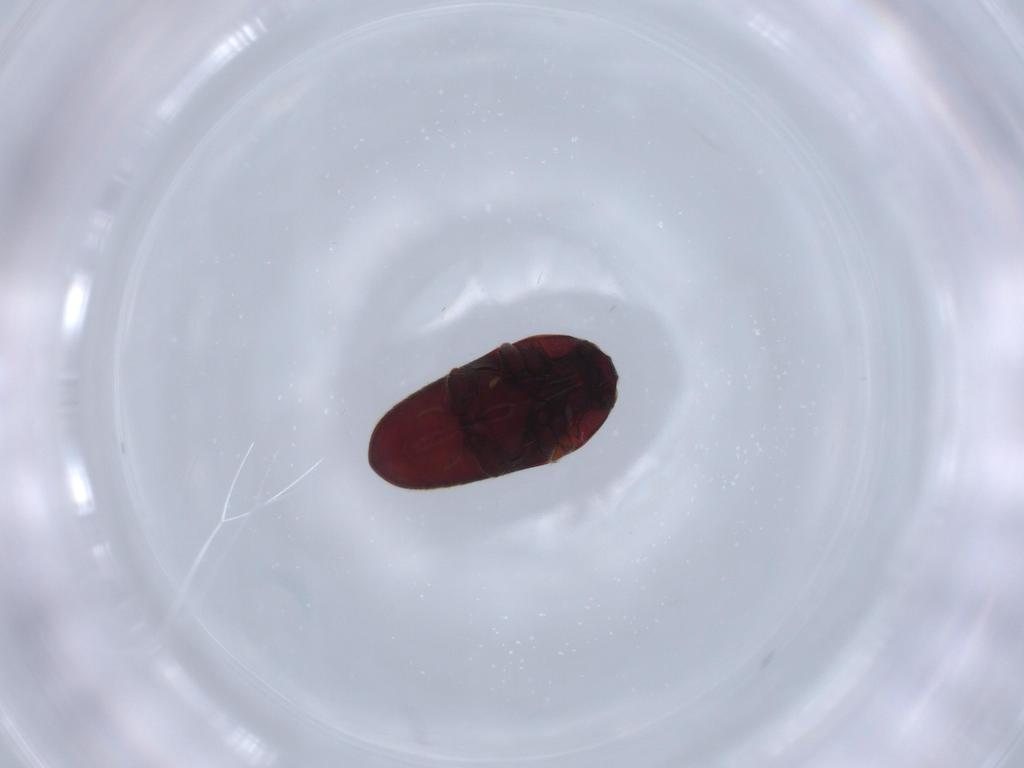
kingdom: Animalia
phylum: Arthropoda
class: Insecta
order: Coleoptera
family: Throscidae
